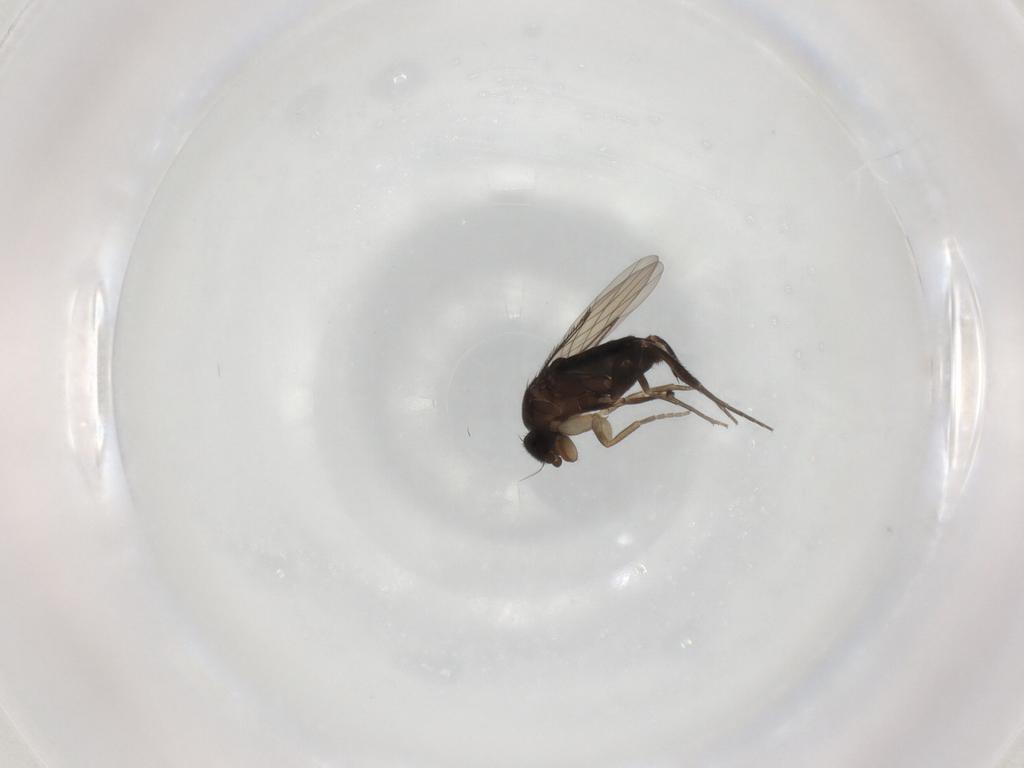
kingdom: Animalia
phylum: Arthropoda
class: Insecta
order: Diptera
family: Phoridae
